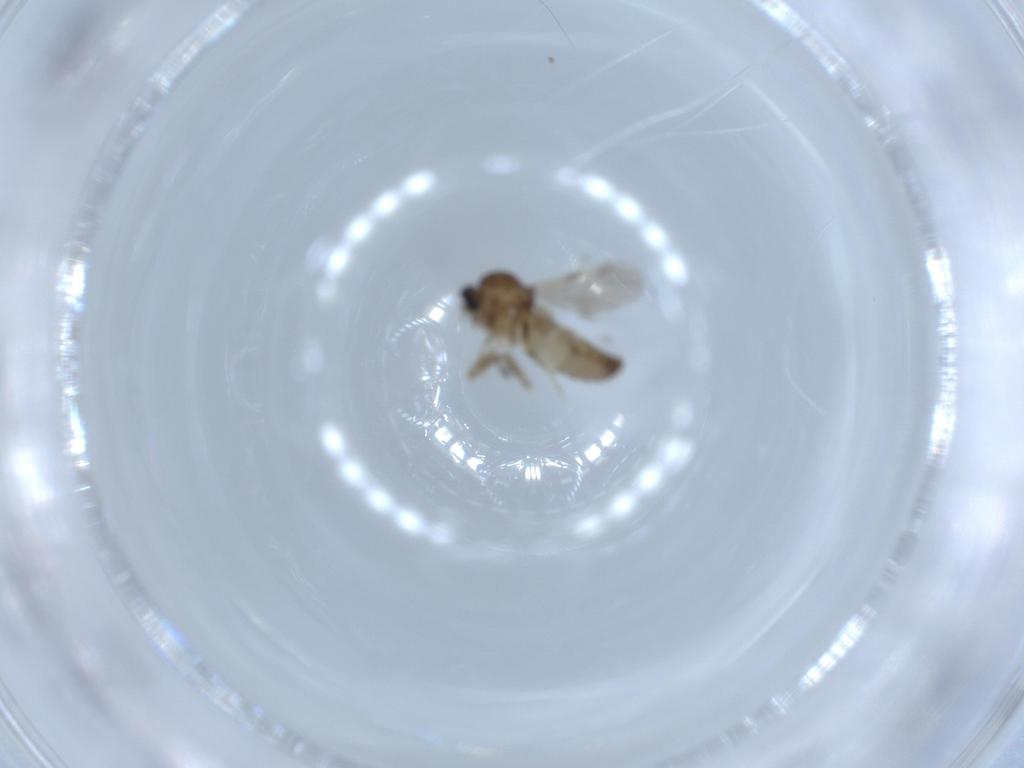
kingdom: Animalia
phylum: Arthropoda
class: Insecta
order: Diptera
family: Ceratopogonidae
